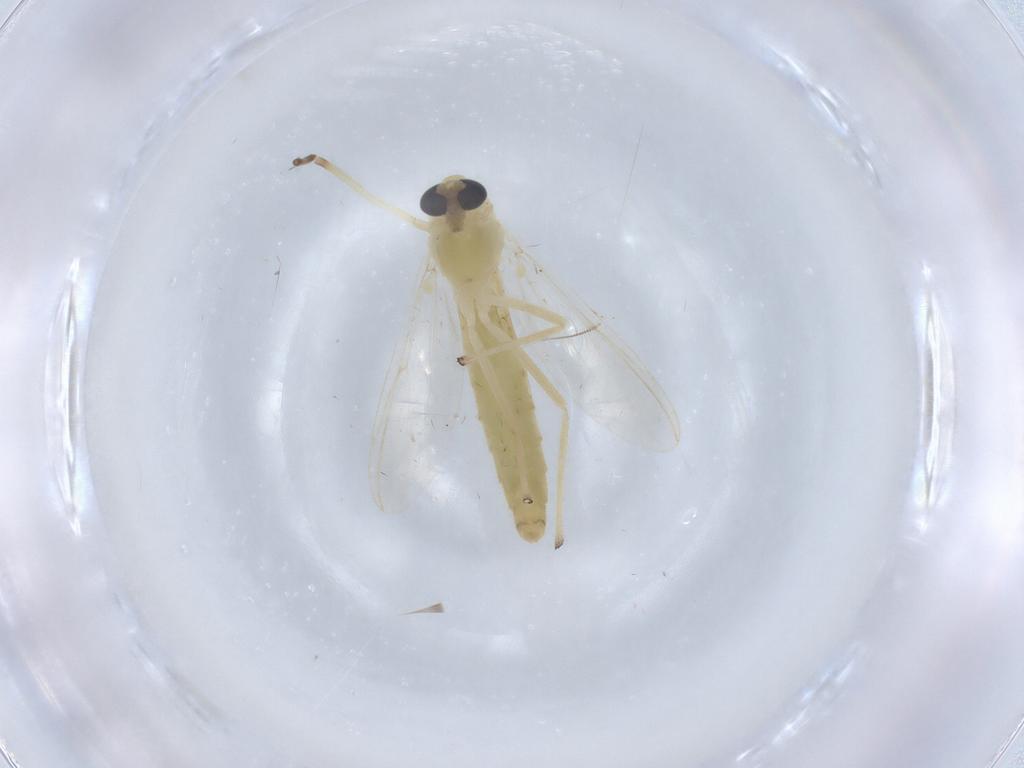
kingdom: Animalia
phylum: Arthropoda
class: Insecta
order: Diptera
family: Chironomidae
